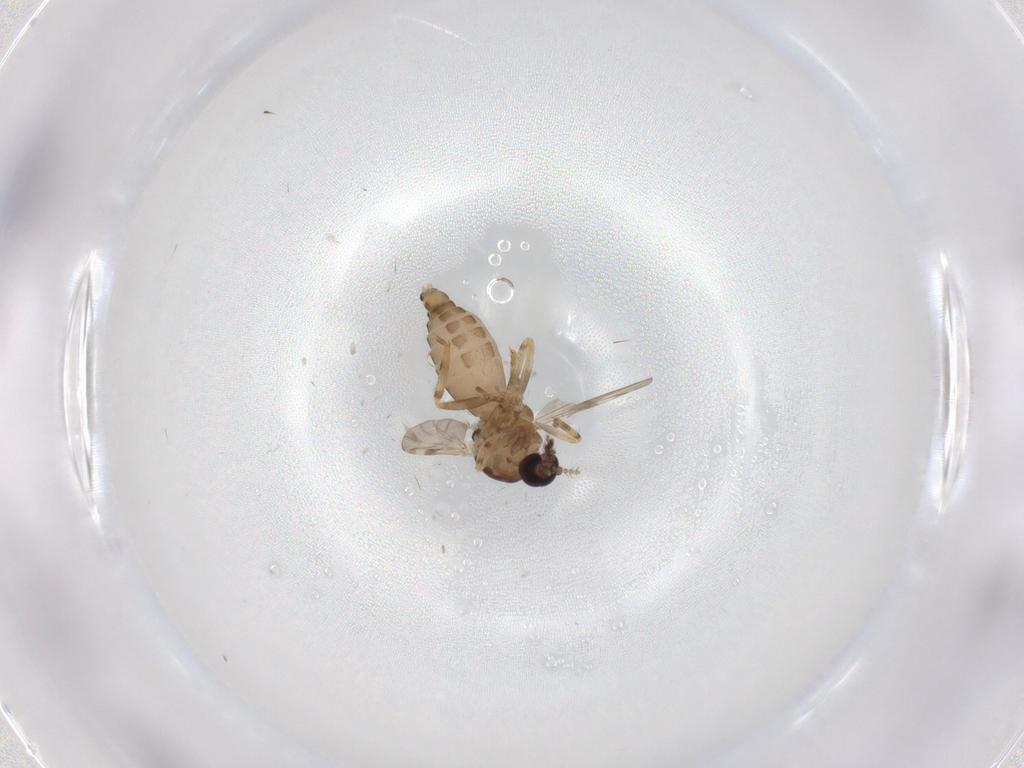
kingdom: Animalia
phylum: Arthropoda
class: Insecta
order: Diptera
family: Ceratopogonidae
